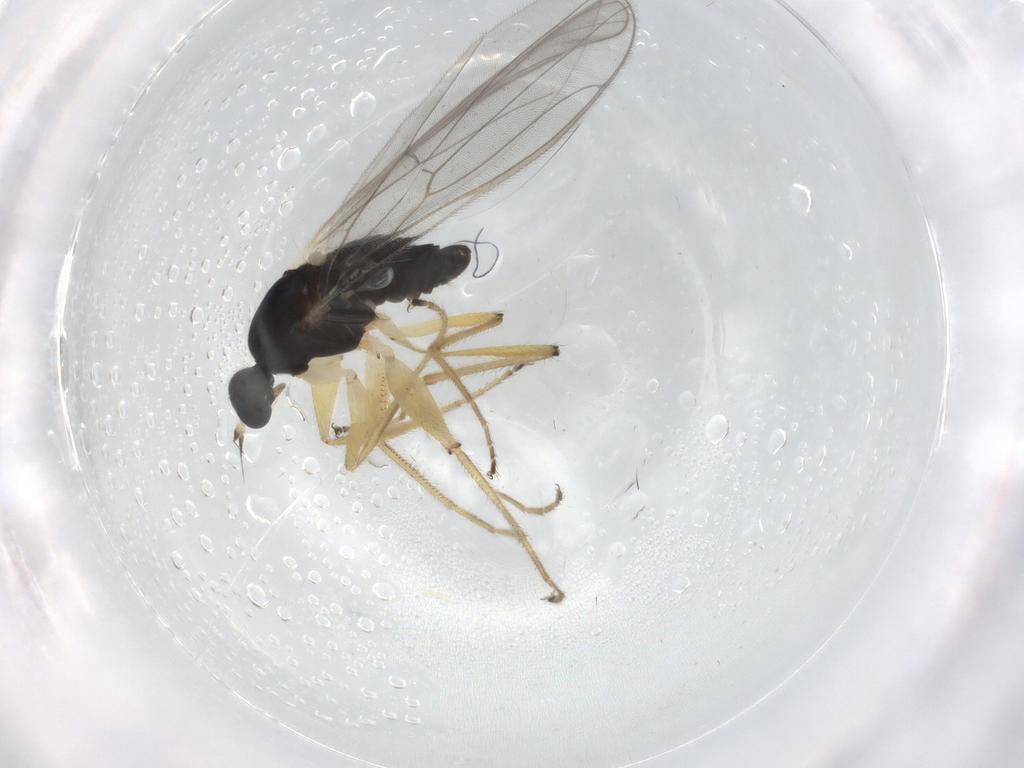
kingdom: Animalia
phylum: Arthropoda
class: Insecta
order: Diptera
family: Hybotidae
